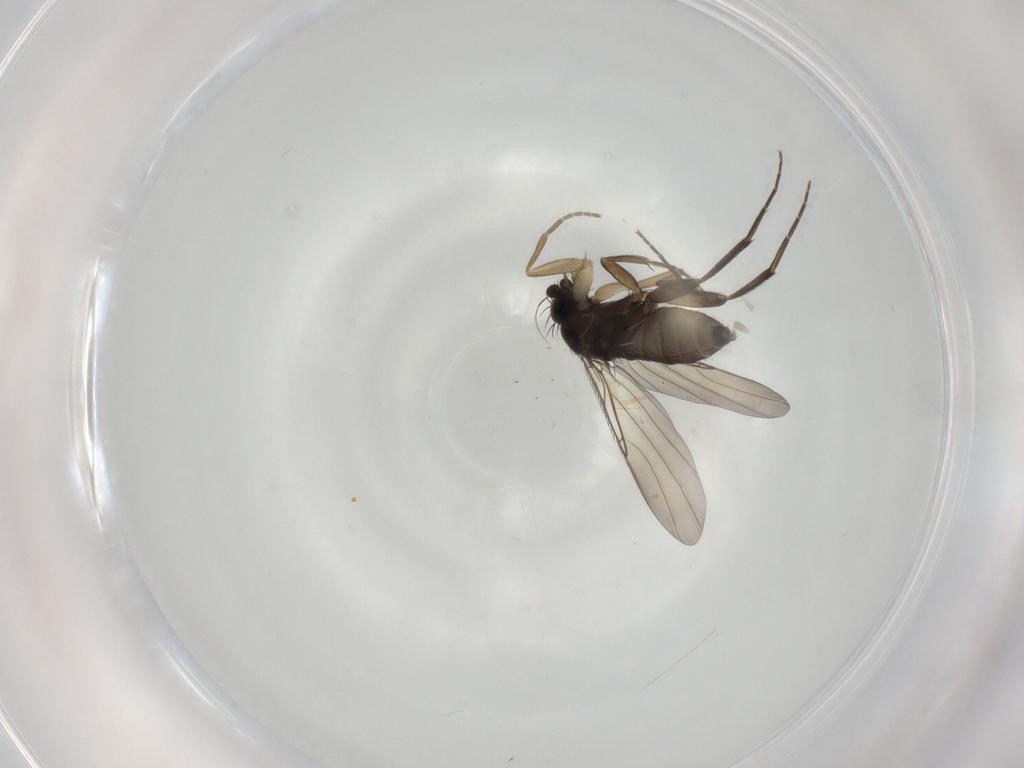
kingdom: Animalia
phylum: Arthropoda
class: Insecta
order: Diptera
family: Phoridae
